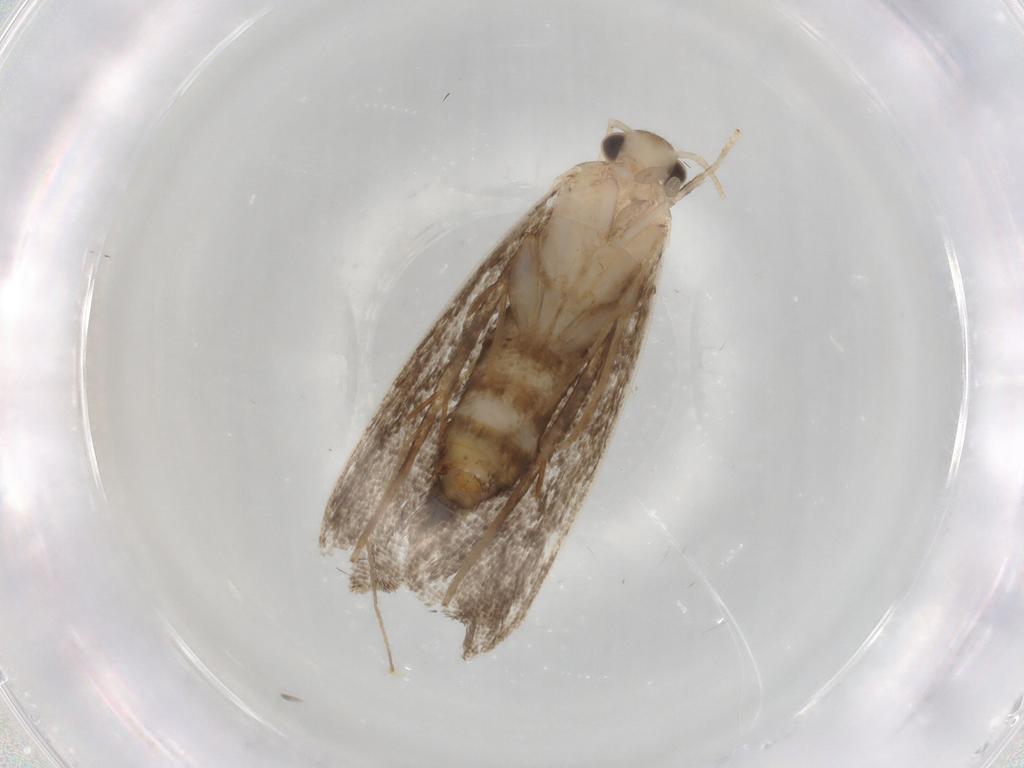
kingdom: Animalia
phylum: Arthropoda
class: Insecta
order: Lepidoptera
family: Dryadaulidae
